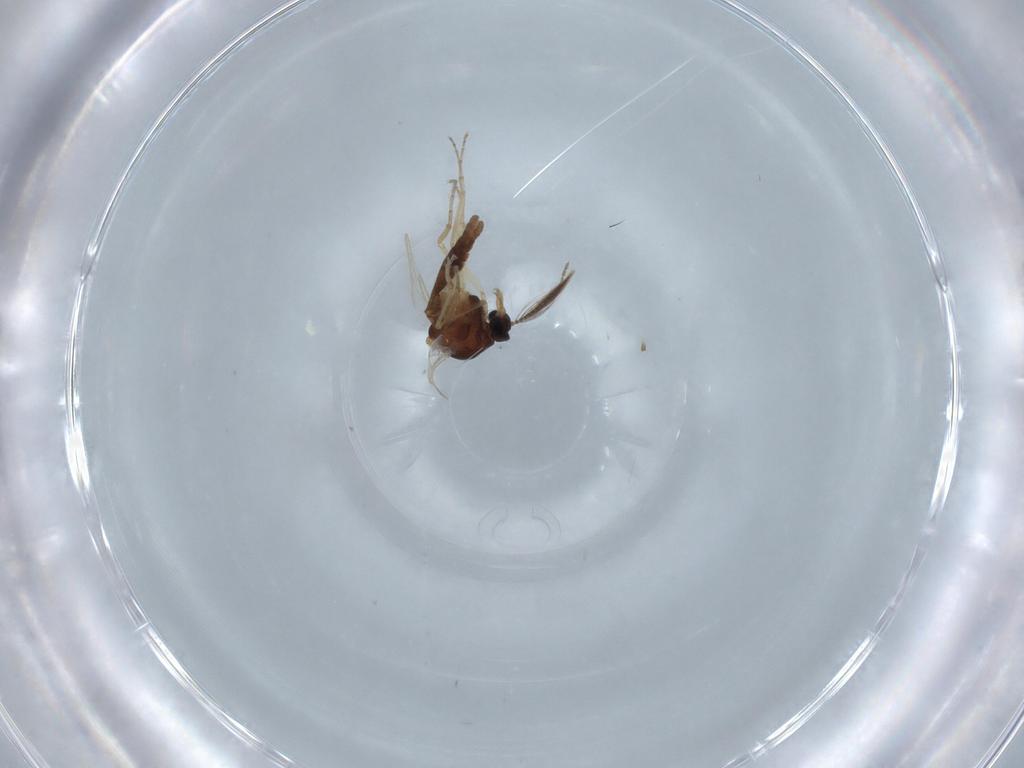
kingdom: Animalia
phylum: Arthropoda
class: Insecta
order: Diptera
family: Ceratopogonidae
